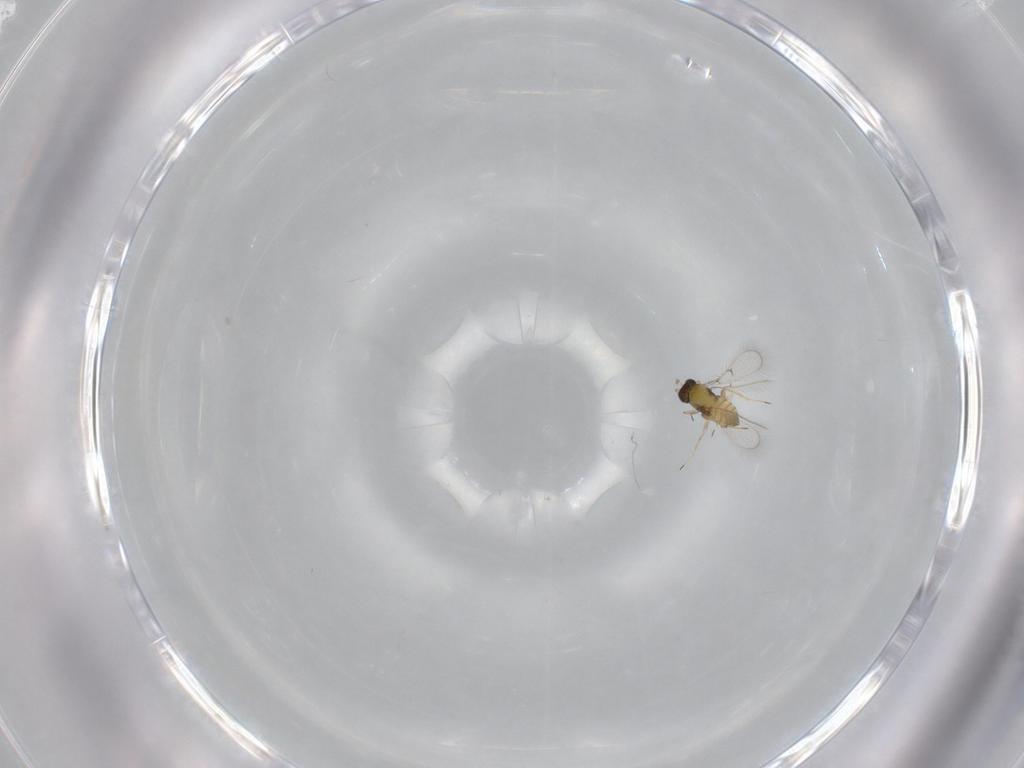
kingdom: Animalia
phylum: Arthropoda
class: Insecta
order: Hymenoptera
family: Trichogrammatidae
